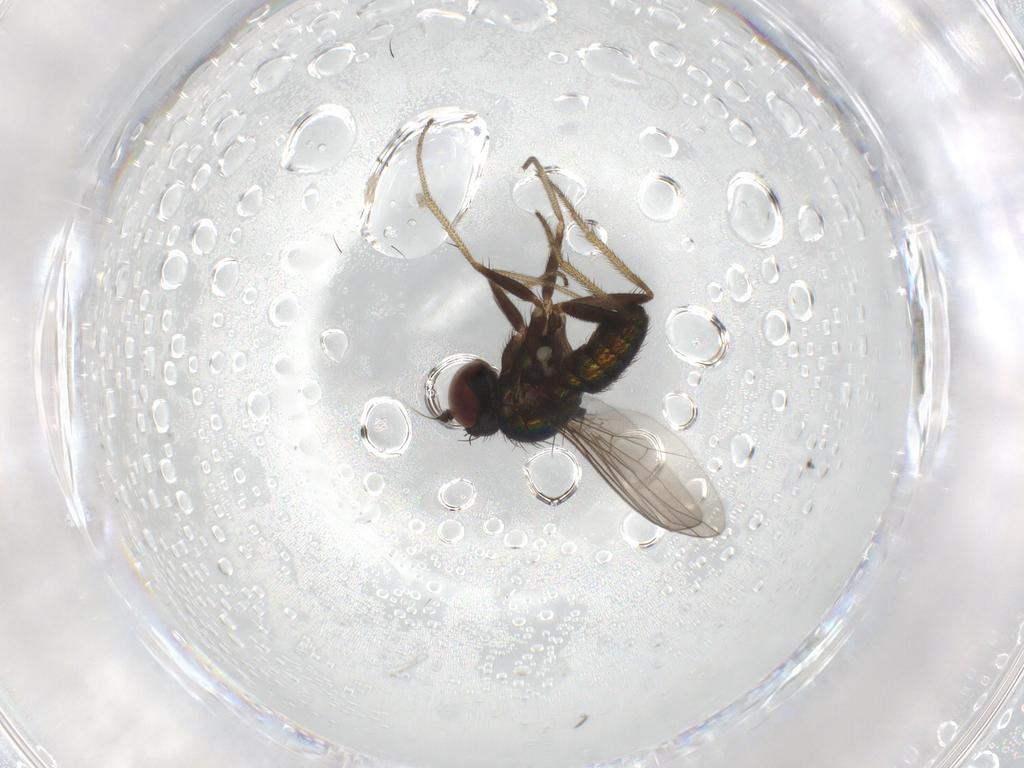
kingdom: Animalia
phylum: Arthropoda
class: Insecta
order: Diptera
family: Dolichopodidae
